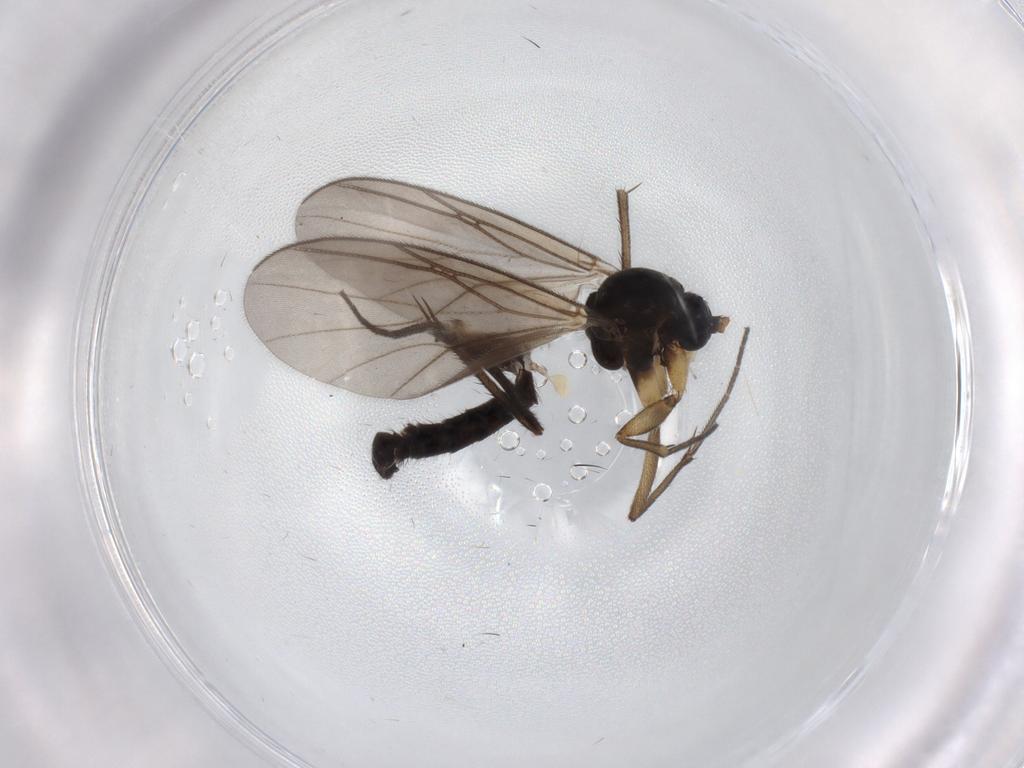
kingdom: Animalia
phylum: Arthropoda
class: Insecta
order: Diptera
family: Mycetophilidae
